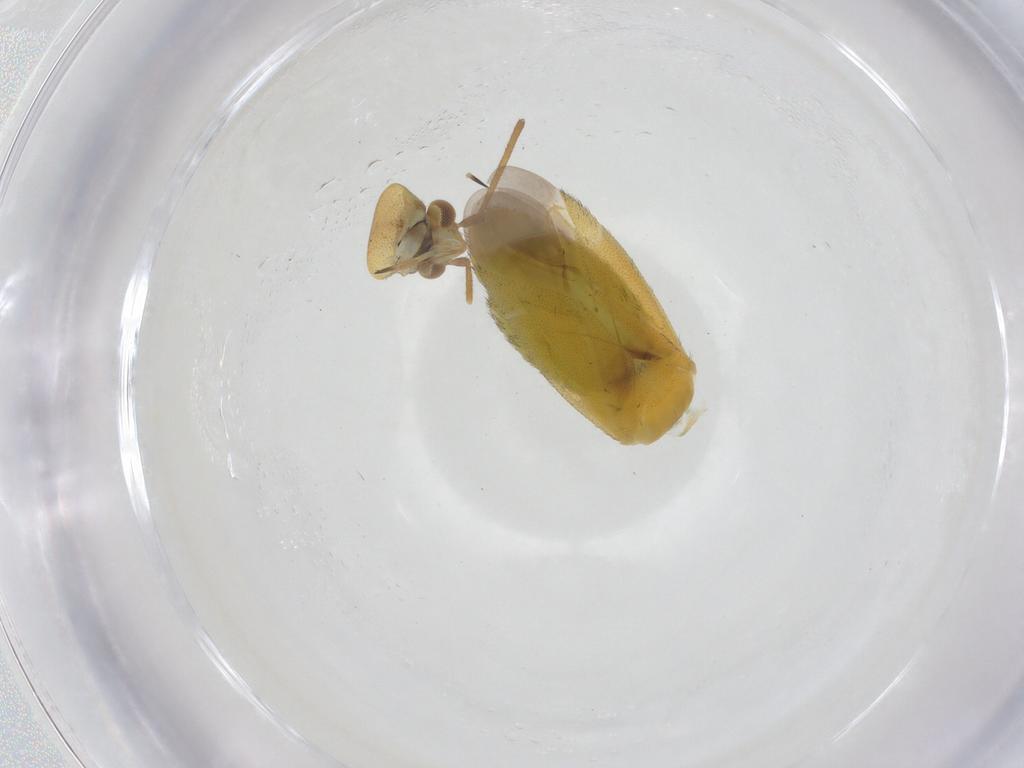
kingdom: Animalia
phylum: Arthropoda
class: Insecta
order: Hemiptera
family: Miridae
